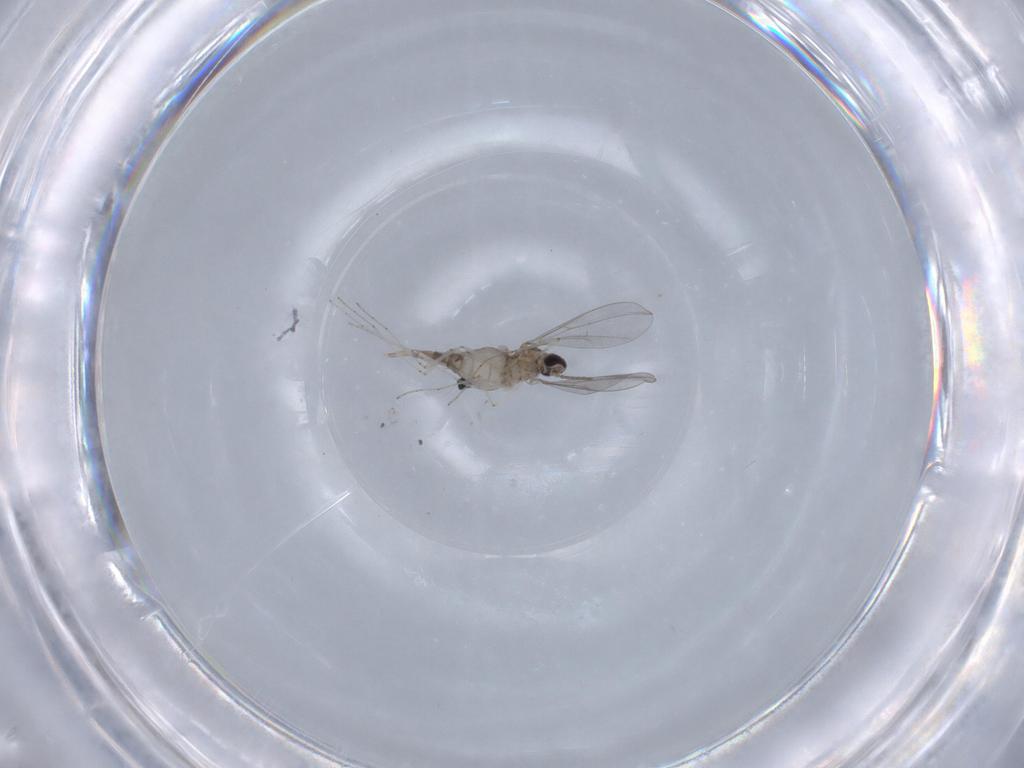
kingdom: Animalia
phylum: Arthropoda
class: Insecta
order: Diptera
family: Cecidomyiidae
